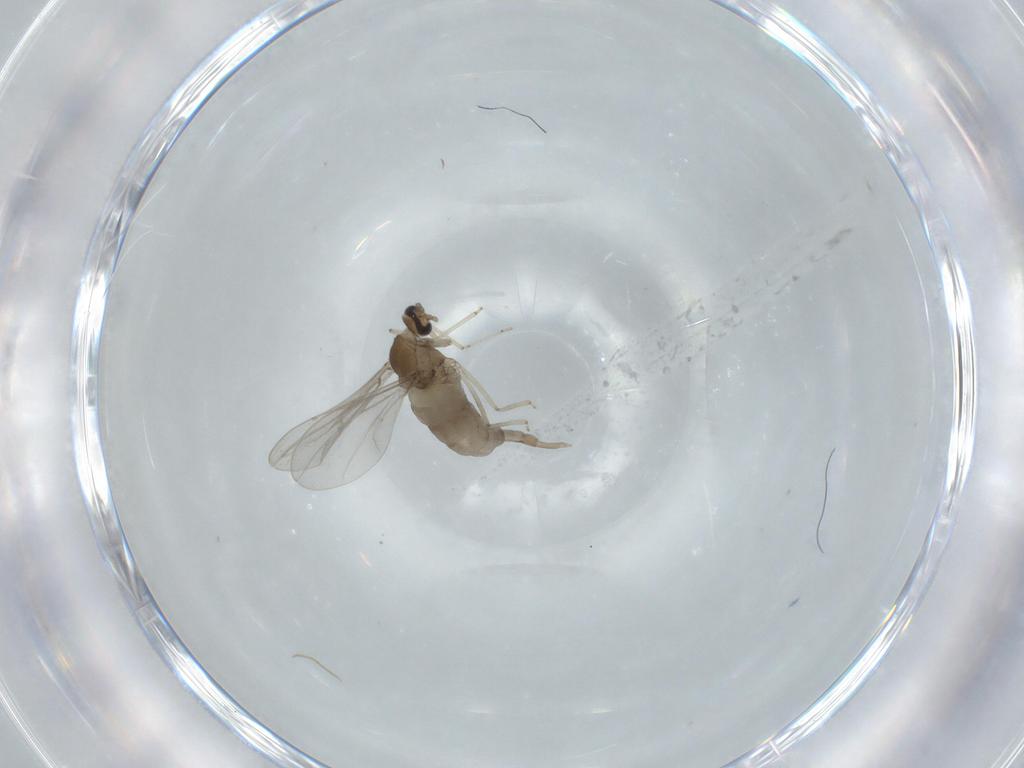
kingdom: Animalia
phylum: Arthropoda
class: Insecta
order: Diptera
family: Cecidomyiidae
